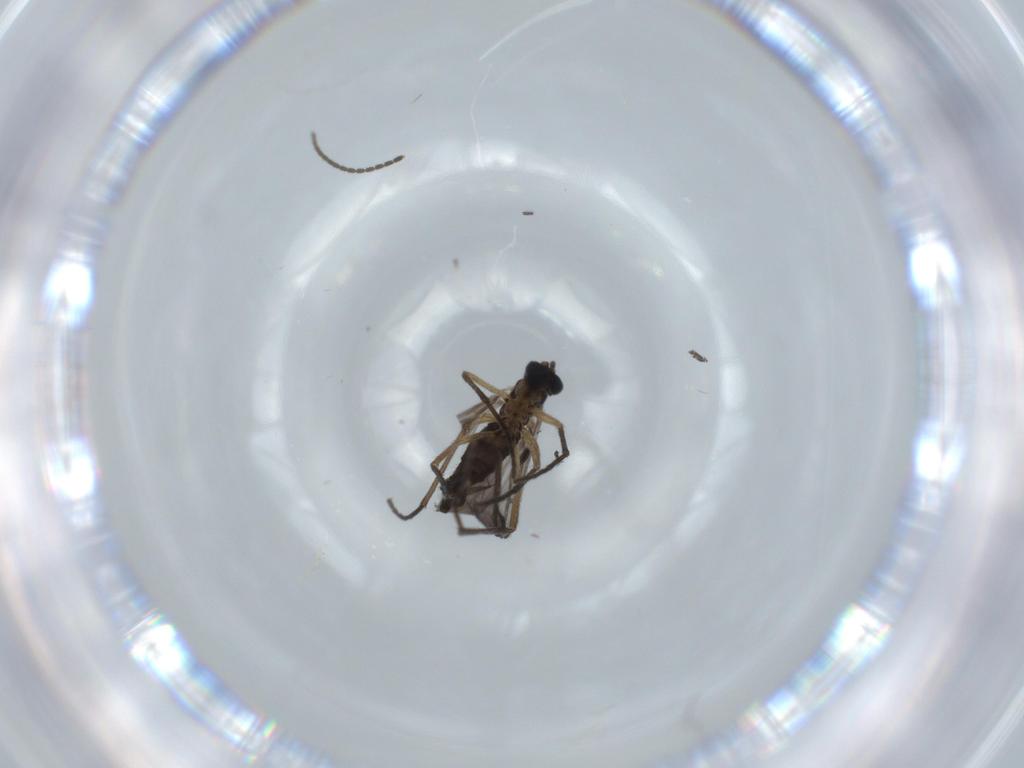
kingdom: Animalia
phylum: Arthropoda
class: Insecta
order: Diptera
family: Sciaridae
